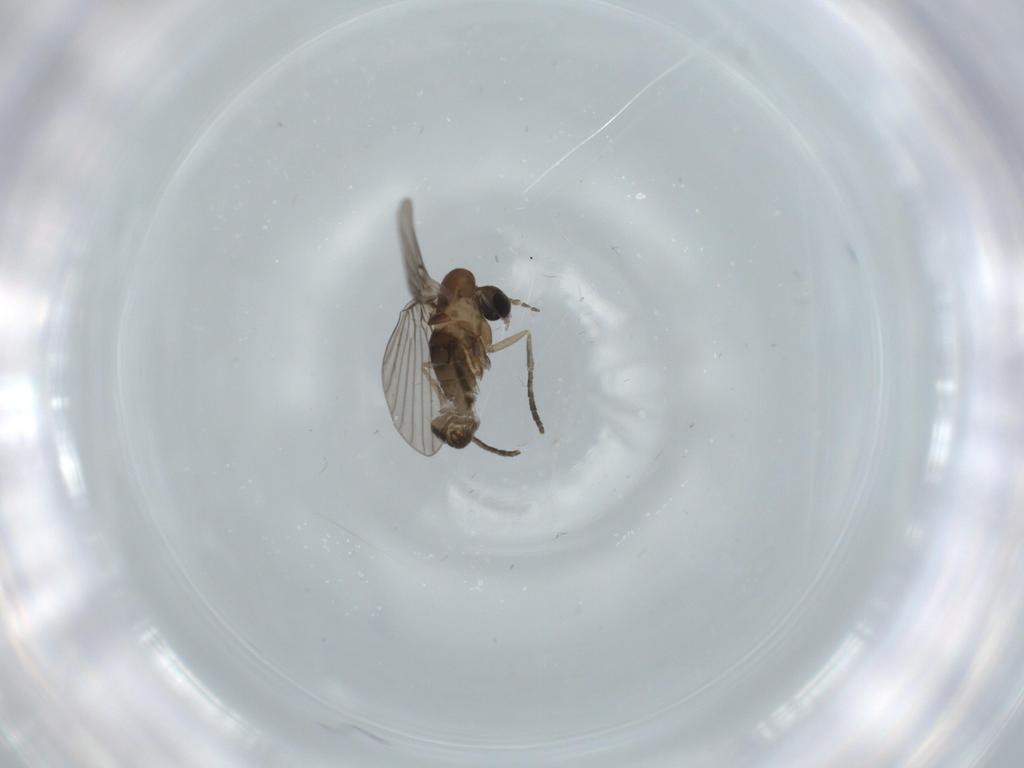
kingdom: Animalia
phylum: Arthropoda
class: Insecta
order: Diptera
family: Psychodidae
